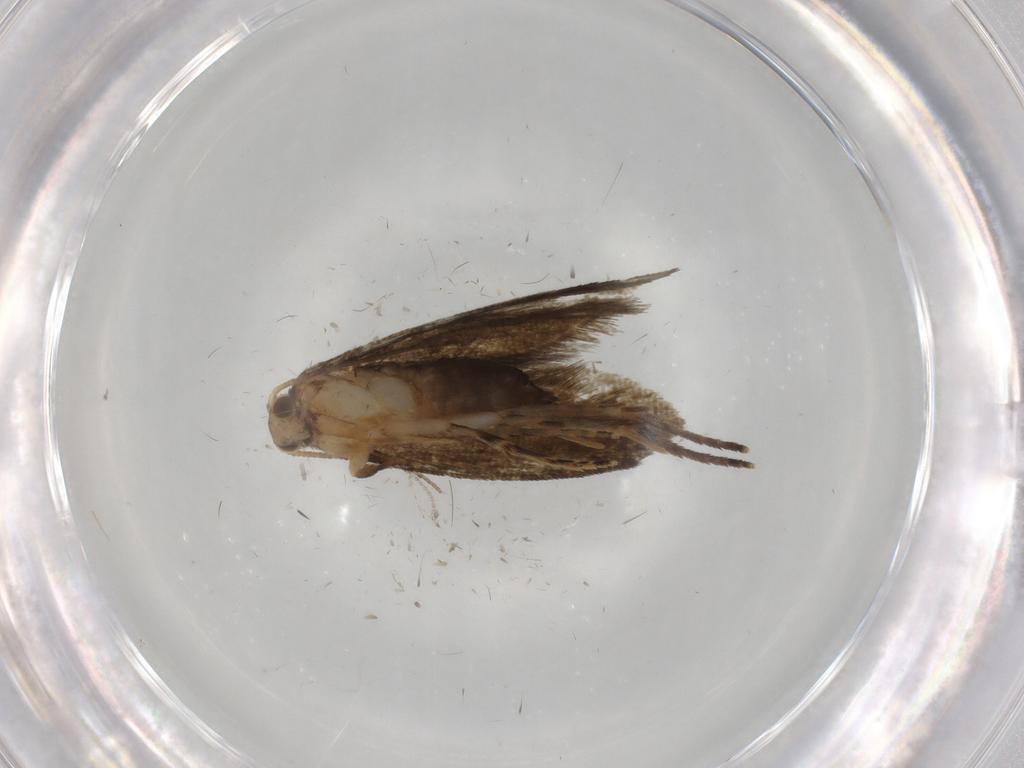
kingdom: Animalia
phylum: Arthropoda
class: Insecta
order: Lepidoptera
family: Crambidae
